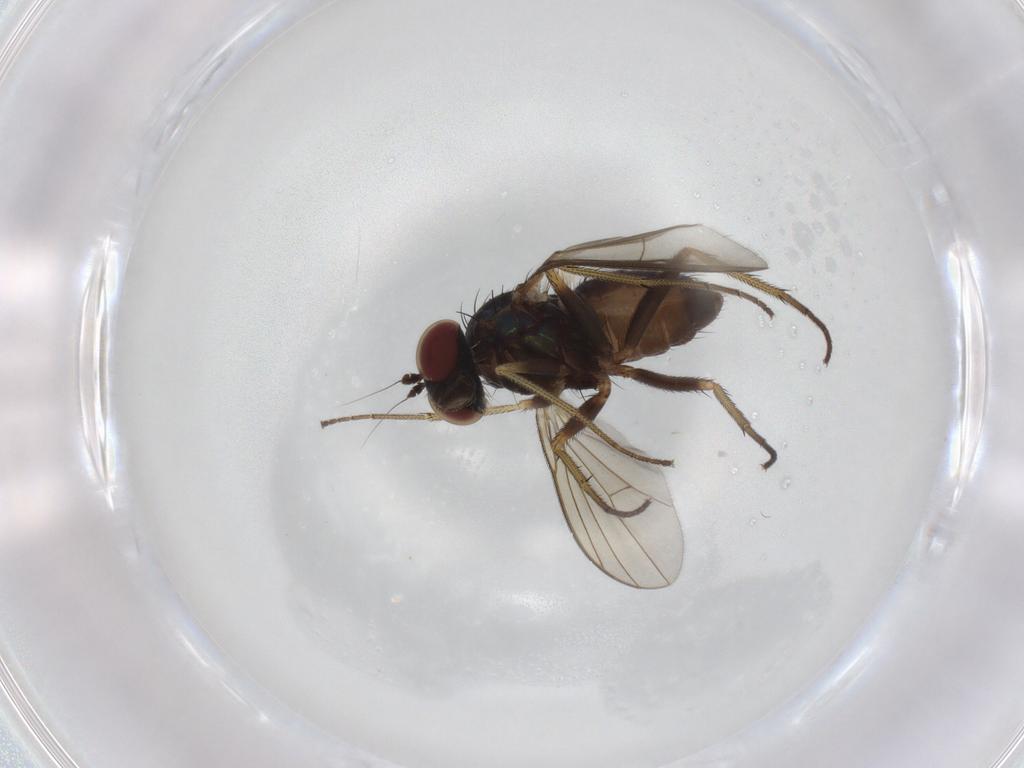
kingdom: Animalia
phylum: Arthropoda
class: Insecta
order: Diptera
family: Dolichopodidae
